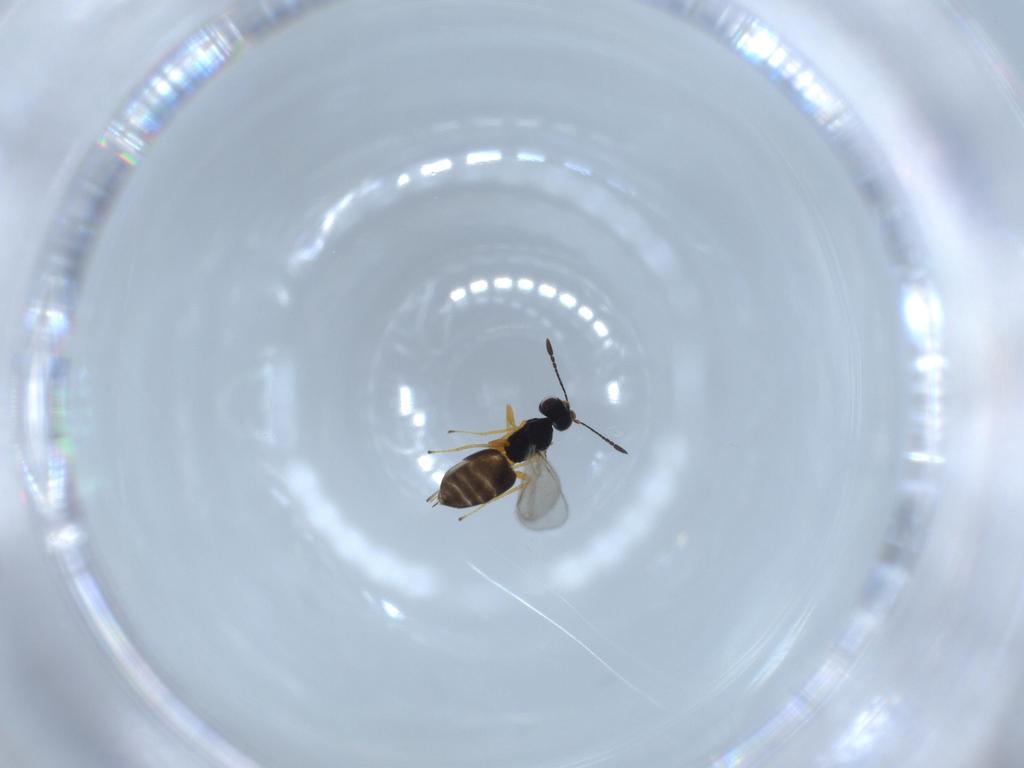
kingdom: Animalia
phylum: Arthropoda
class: Insecta
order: Hymenoptera
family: Mymaridae
